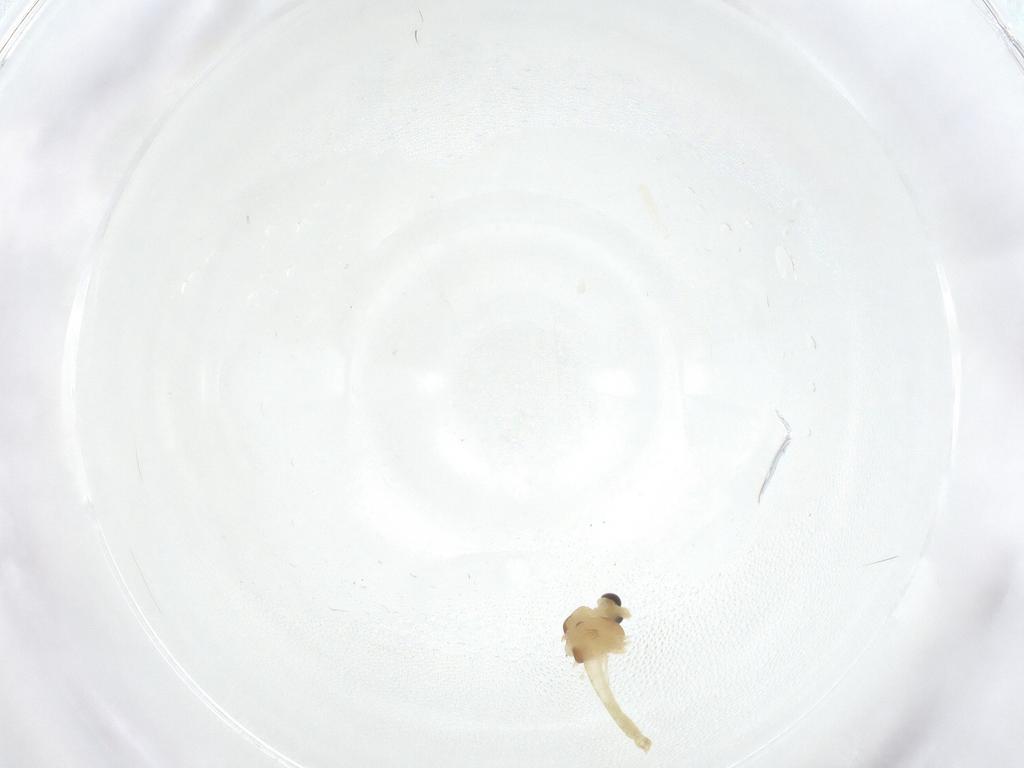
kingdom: Animalia
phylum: Arthropoda
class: Insecta
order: Diptera
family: Chironomidae
